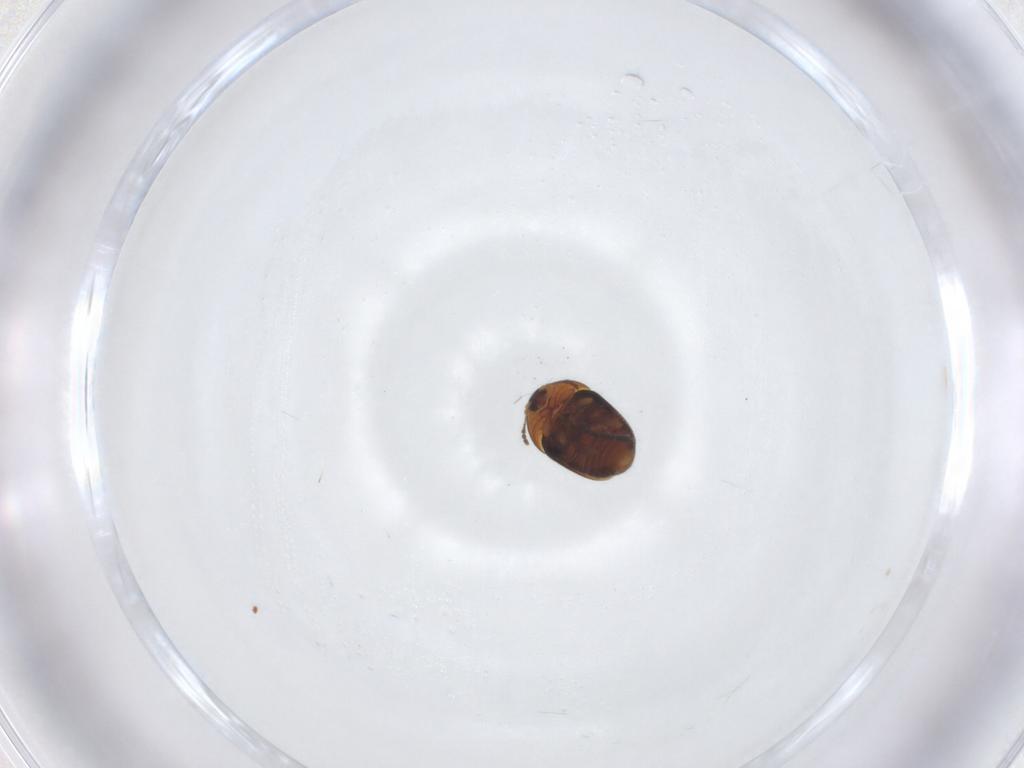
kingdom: Animalia
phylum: Arthropoda
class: Insecta
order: Coleoptera
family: Corylophidae
